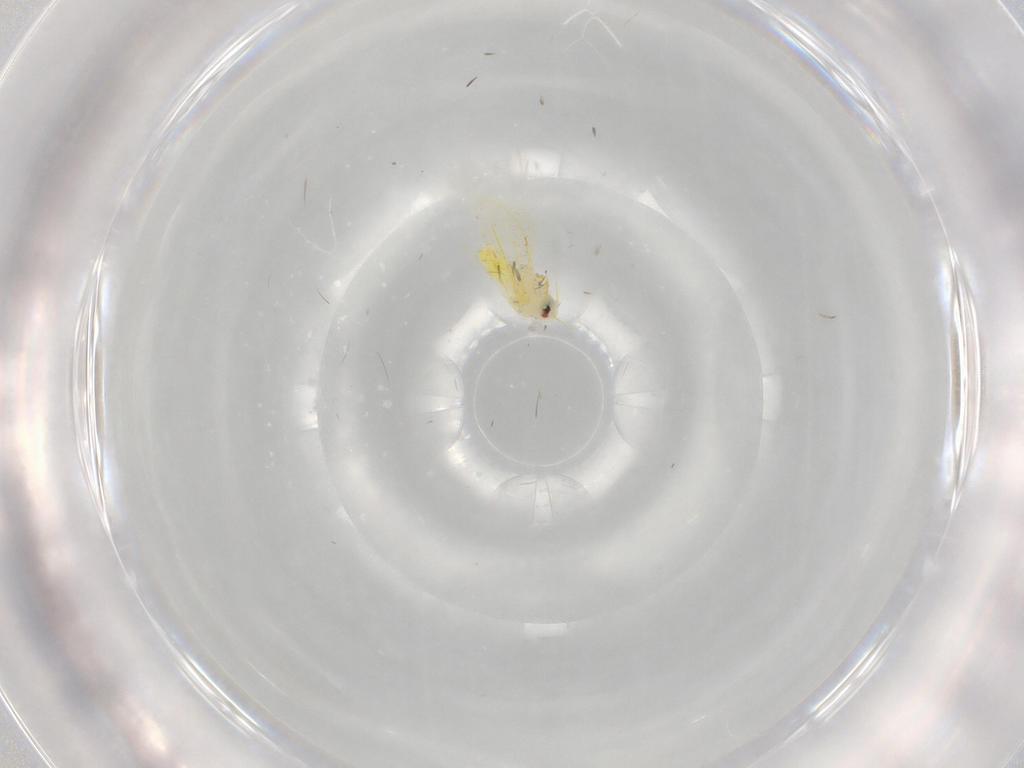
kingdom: Animalia
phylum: Arthropoda
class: Insecta
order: Hemiptera
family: Aleyrodidae
